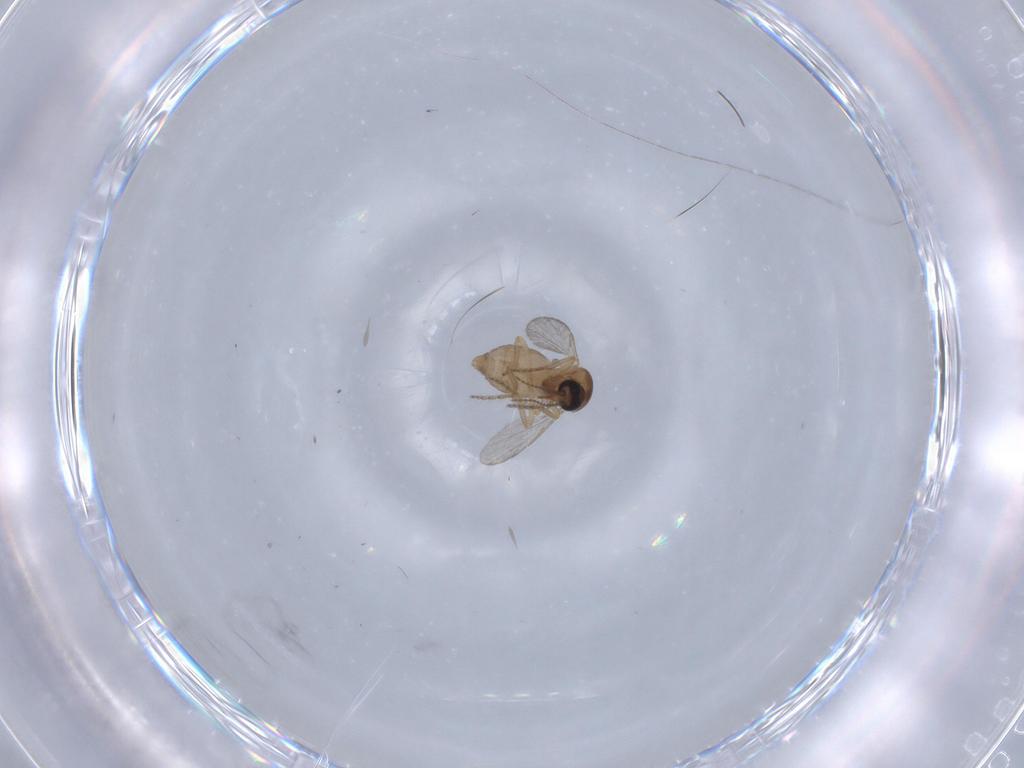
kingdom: Animalia
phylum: Arthropoda
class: Insecta
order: Diptera
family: Ceratopogonidae
